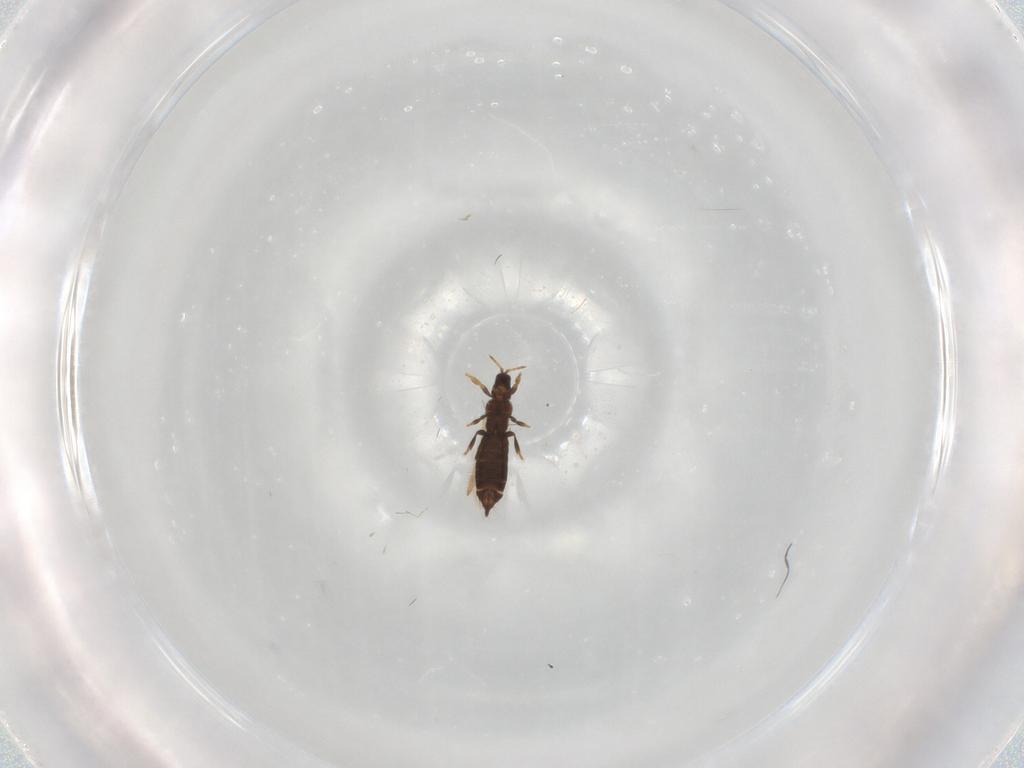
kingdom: Animalia
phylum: Arthropoda
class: Insecta
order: Thysanoptera
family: Thripidae
